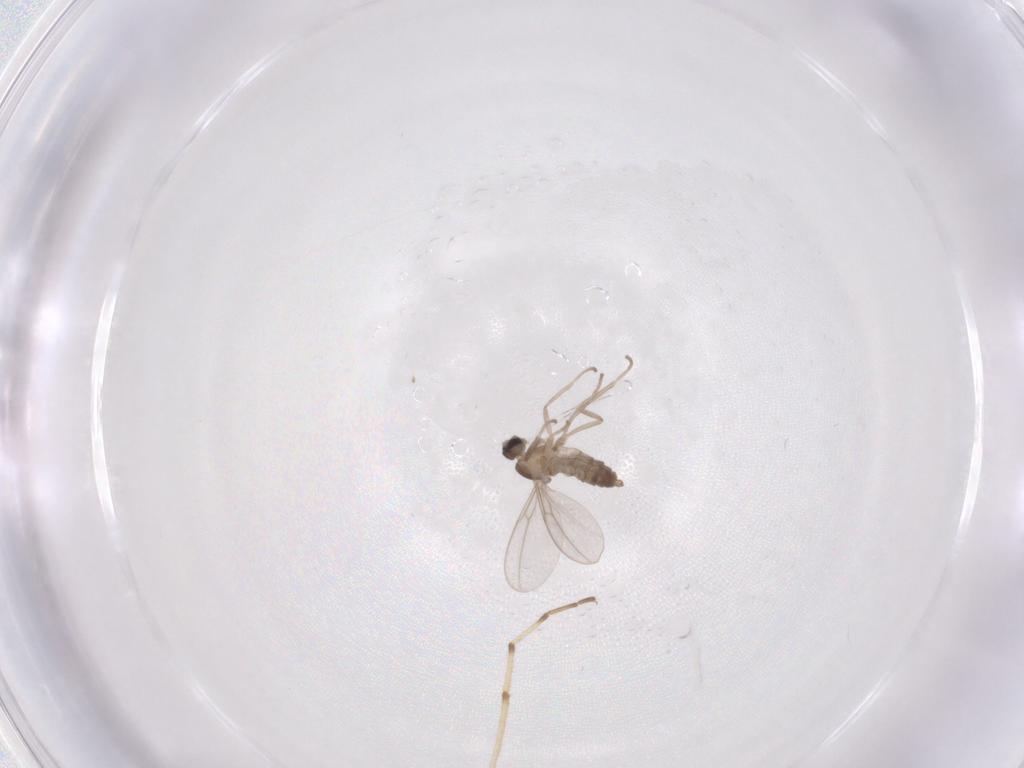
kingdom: Animalia
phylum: Arthropoda
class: Insecta
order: Diptera
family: Cecidomyiidae
